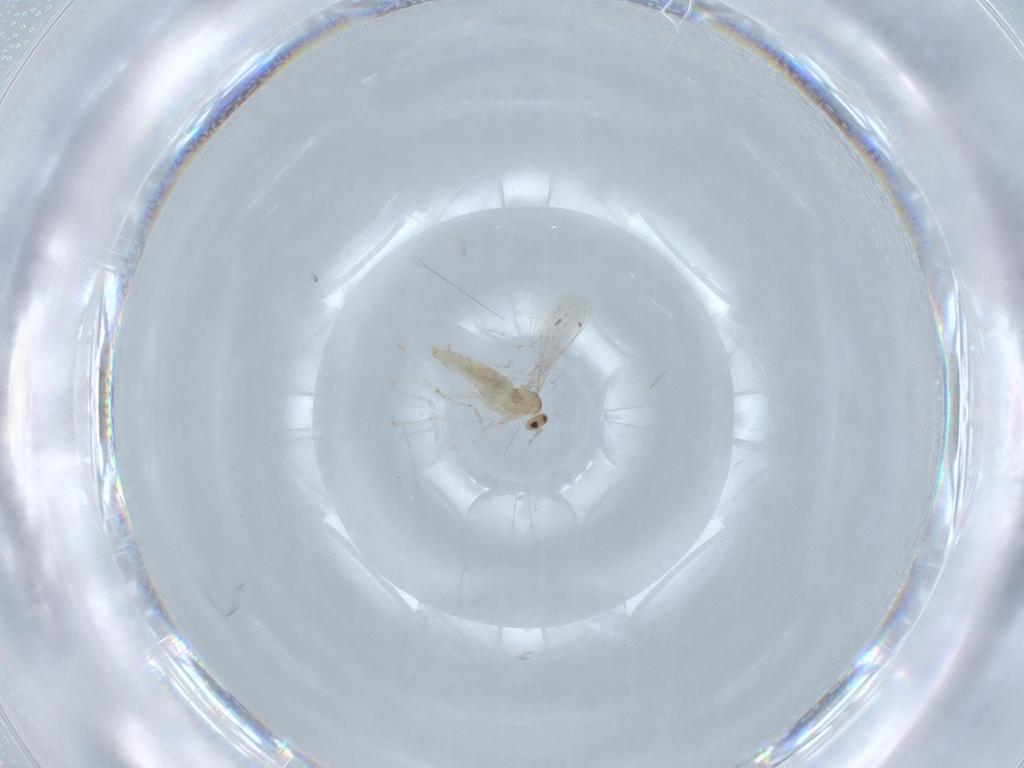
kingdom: Animalia
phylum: Arthropoda
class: Insecta
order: Diptera
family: Cecidomyiidae
